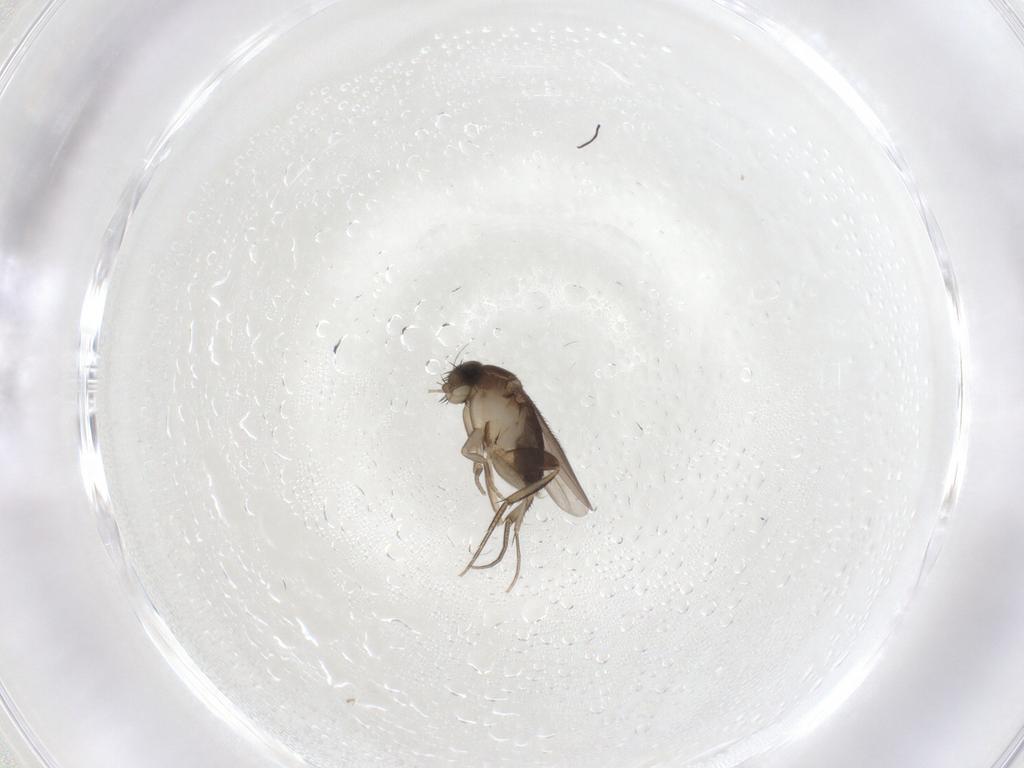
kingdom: Animalia
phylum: Arthropoda
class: Insecta
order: Diptera
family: Phoridae
